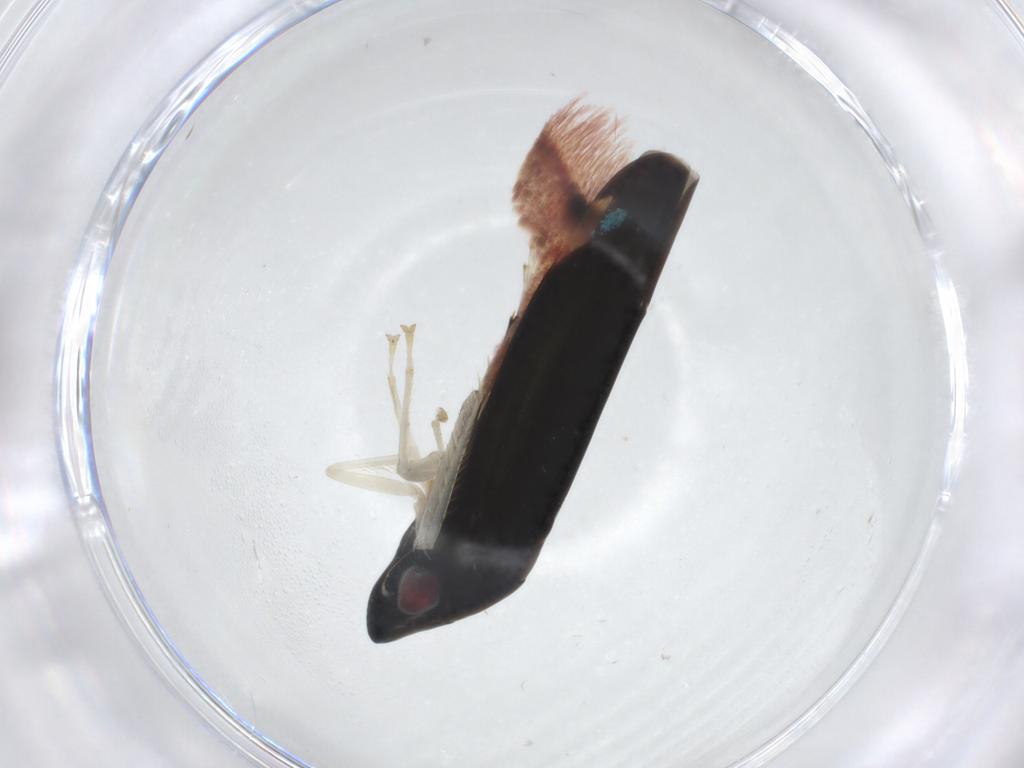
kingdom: Animalia
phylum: Arthropoda
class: Insecta
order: Hemiptera
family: Cicadellidae
